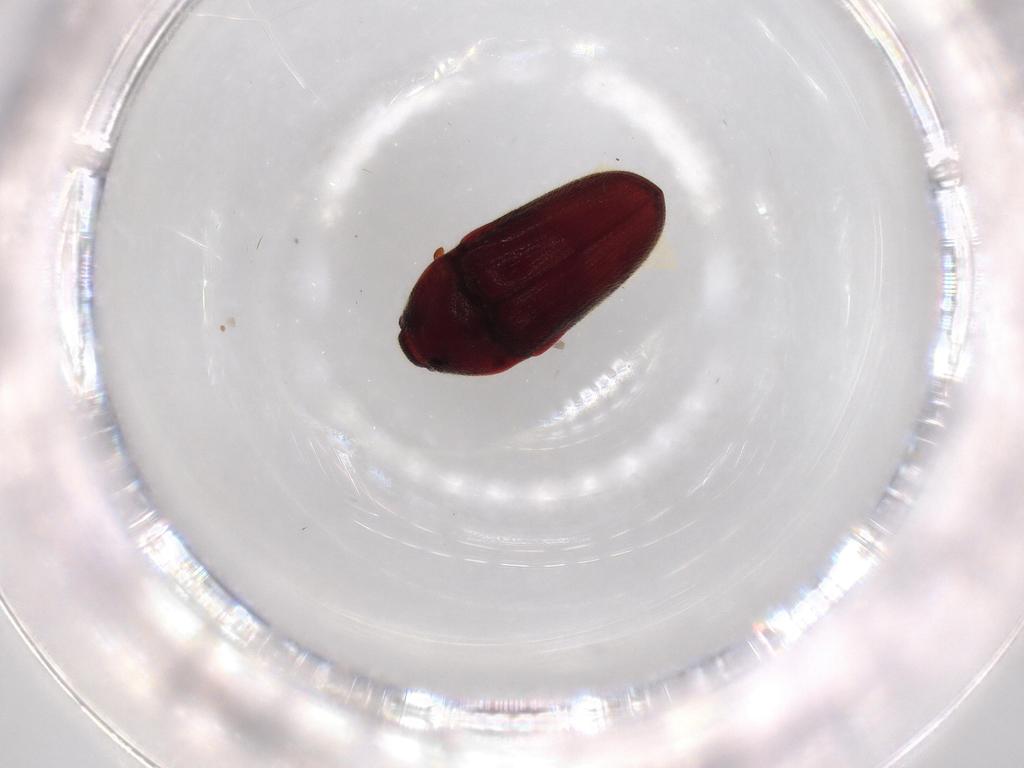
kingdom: Animalia
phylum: Arthropoda
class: Insecta
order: Coleoptera
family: Throscidae
